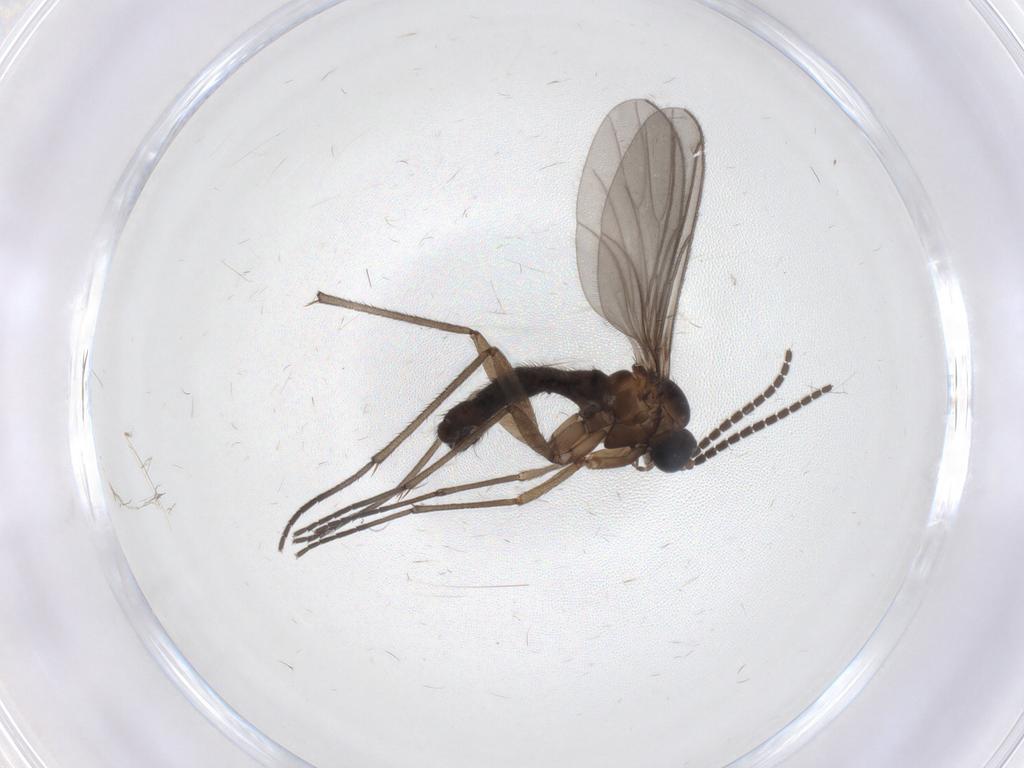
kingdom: Animalia
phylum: Arthropoda
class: Insecta
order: Diptera
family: Sciaridae
